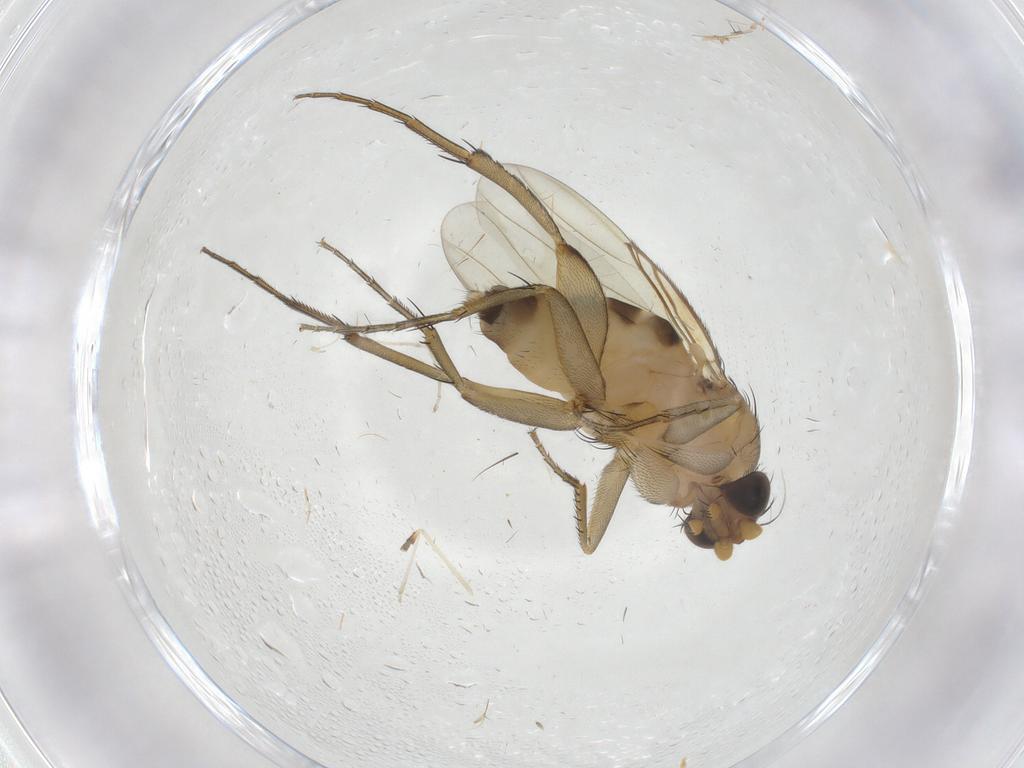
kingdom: Animalia
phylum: Arthropoda
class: Insecta
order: Diptera
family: Phoridae
